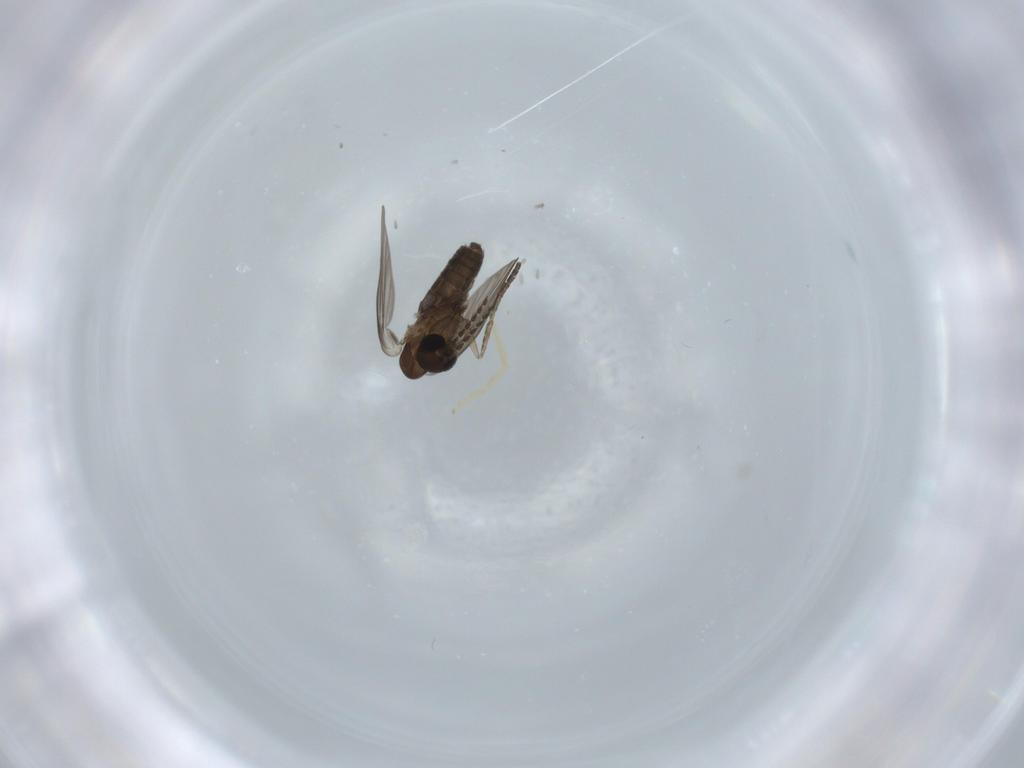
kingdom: Animalia
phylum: Arthropoda
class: Insecta
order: Diptera
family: Psychodidae
